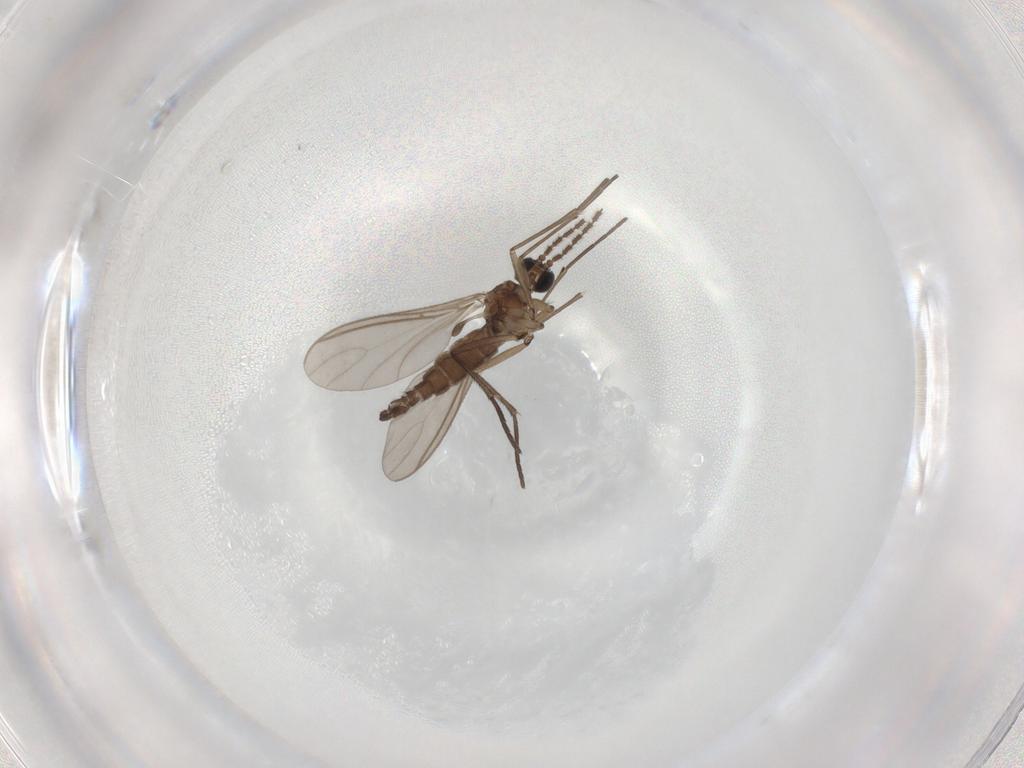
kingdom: Animalia
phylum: Arthropoda
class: Insecta
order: Diptera
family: Sciaridae
